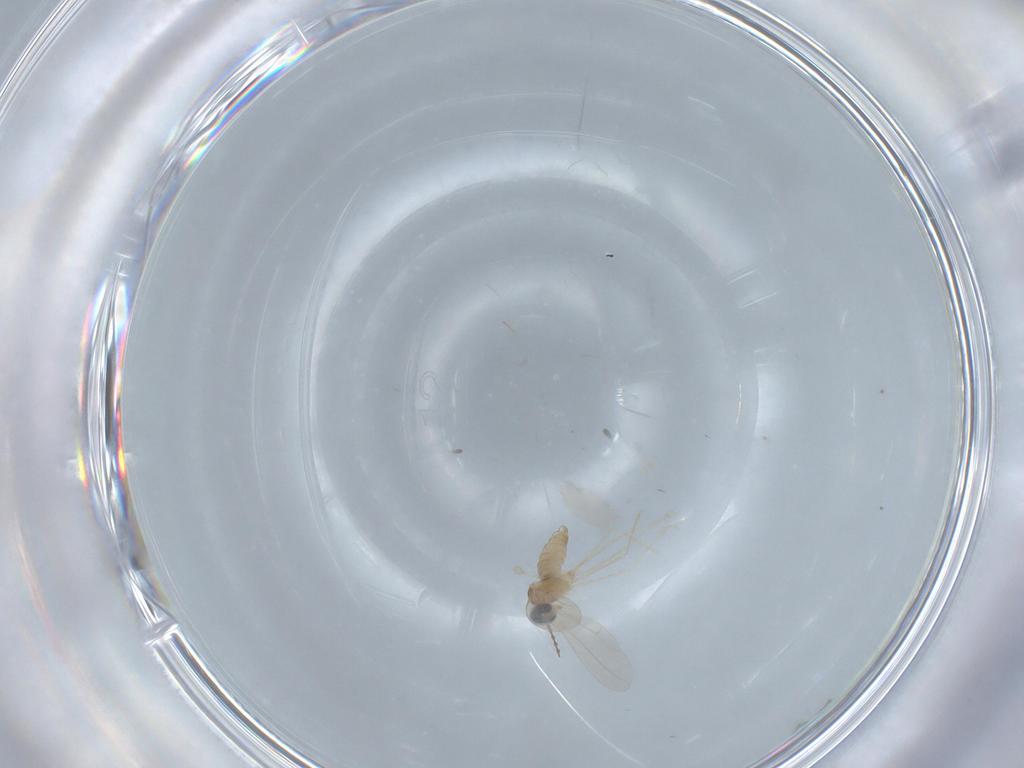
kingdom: Animalia
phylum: Arthropoda
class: Insecta
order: Diptera
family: Cecidomyiidae
